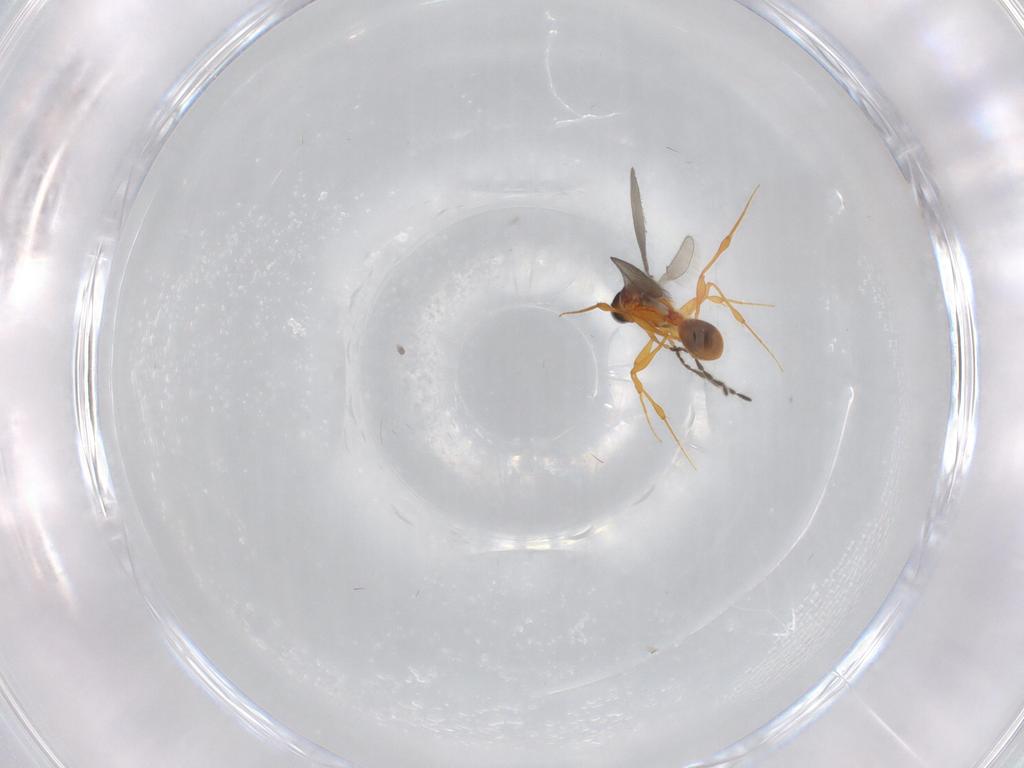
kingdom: Animalia
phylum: Arthropoda
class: Insecta
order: Hymenoptera
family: Platygastridae
